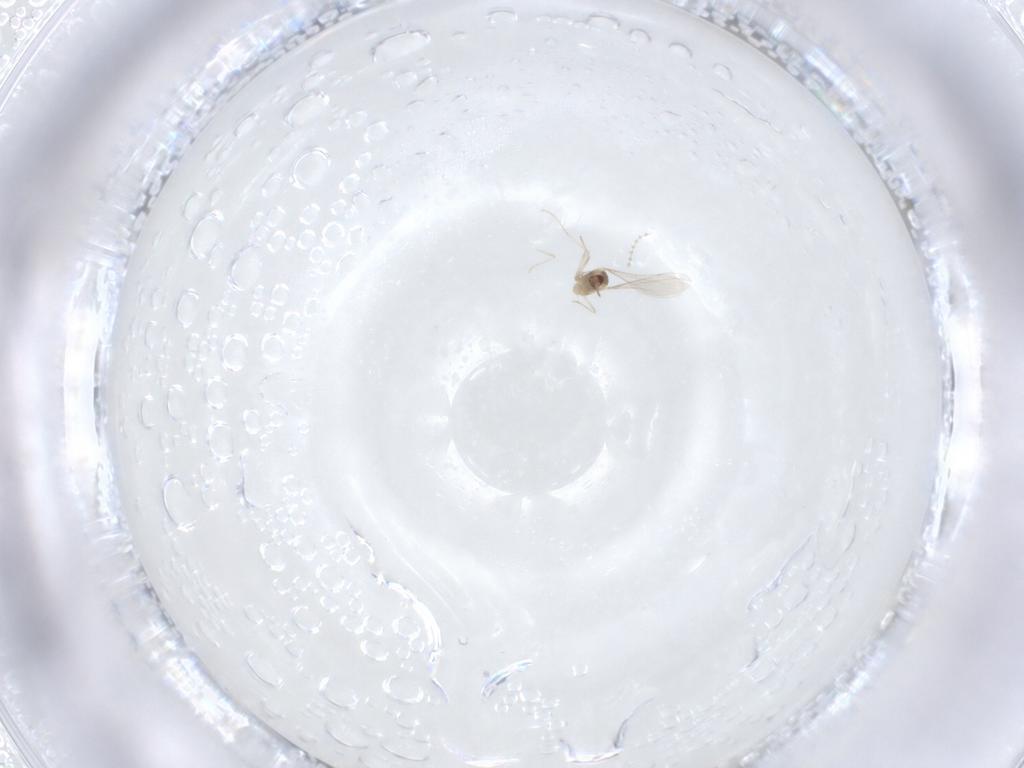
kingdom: Animalia
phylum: Arthropoda
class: Insecta
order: Diptera
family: Cecidomyiidae
